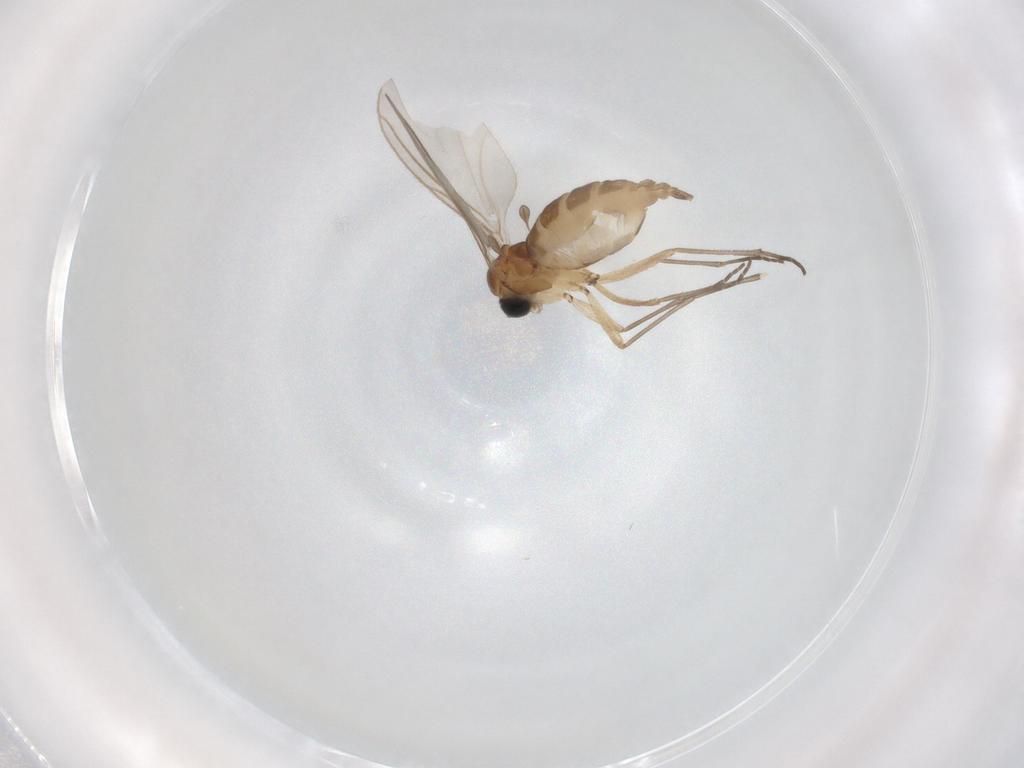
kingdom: Animalia
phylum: Arthropoda
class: Insecta
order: Diptera
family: Sciaridae
